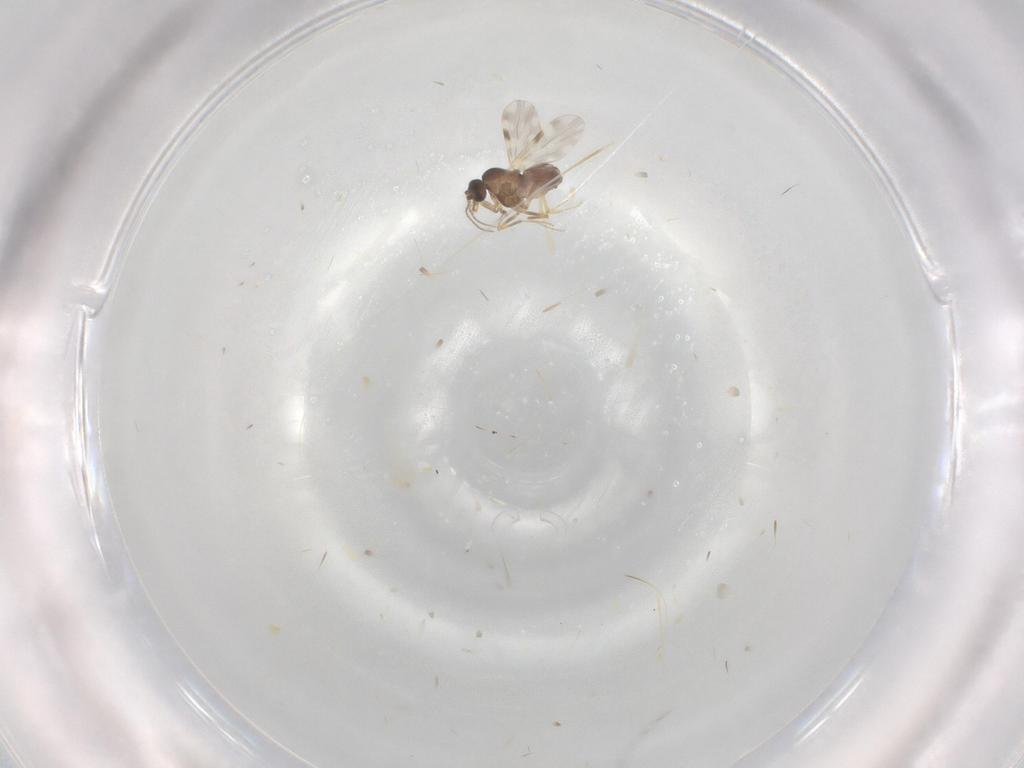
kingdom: Animalia
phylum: Arthropoda
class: Insecta
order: Diptera
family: Ceratopogonidae
